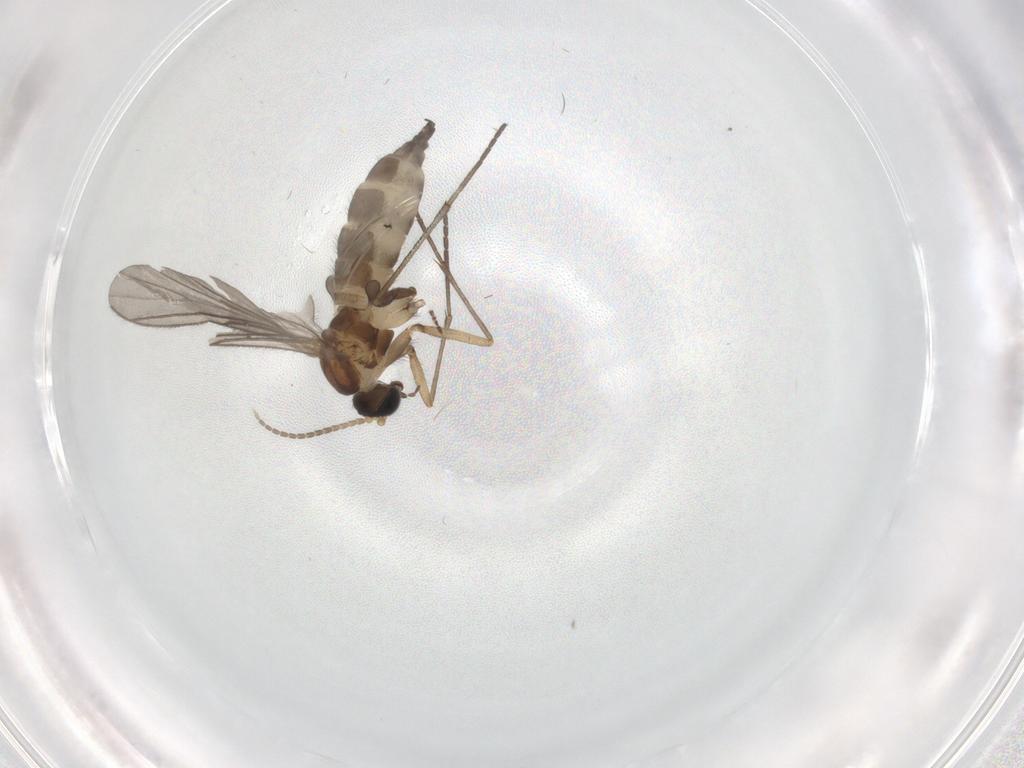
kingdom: Animalia
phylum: Arthropoda
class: Insecta
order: Diptera
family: Sciaridae
